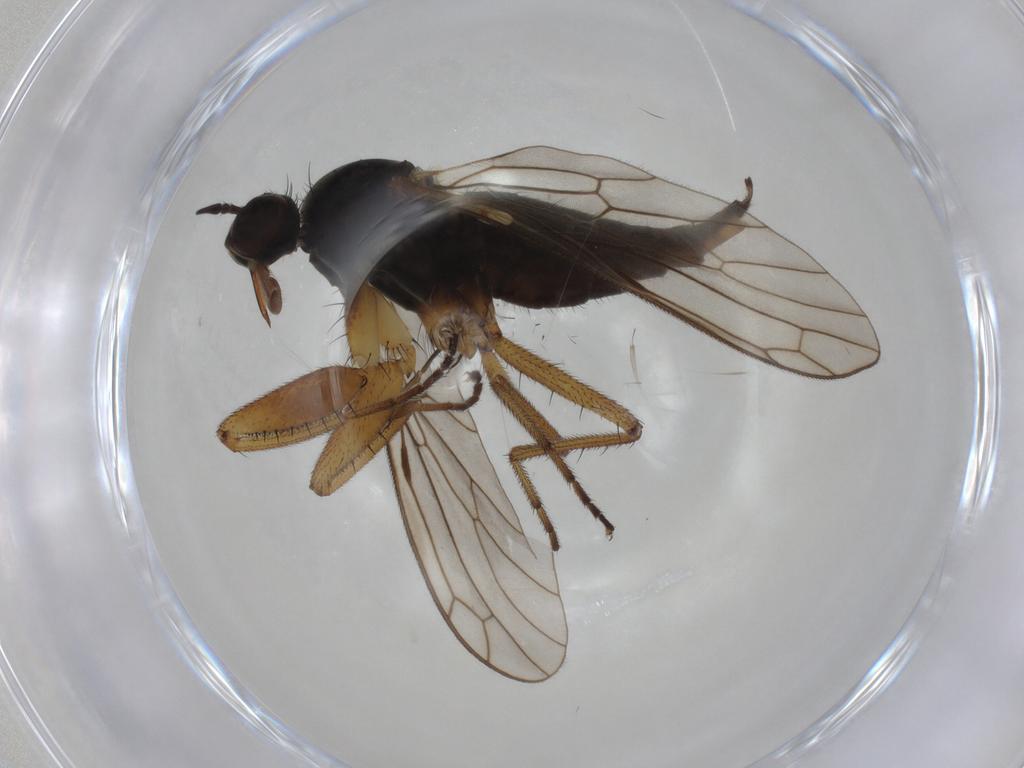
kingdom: Animalia
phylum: Arthropoda
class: Insecta
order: Diptera
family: Empididae
